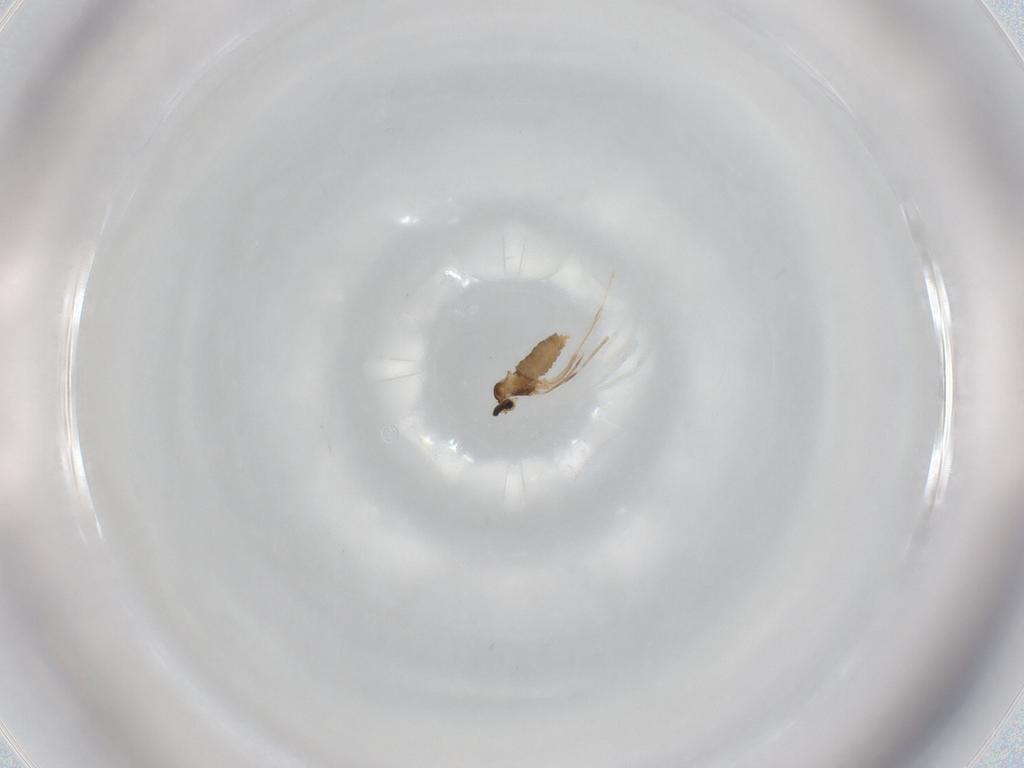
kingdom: Animalia
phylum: Arthropoda
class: Insecta
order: Diptera
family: Cecidomyiidae
